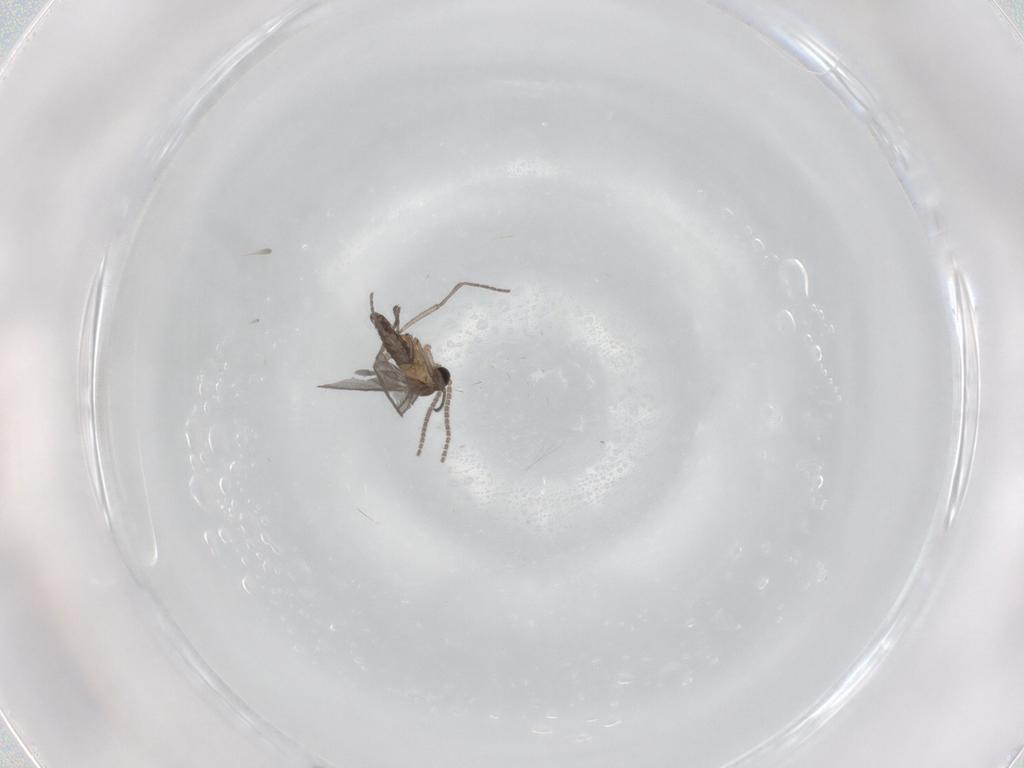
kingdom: Animalia
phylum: Arthropoda
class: Insecta
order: Diptera
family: Sciaridae
